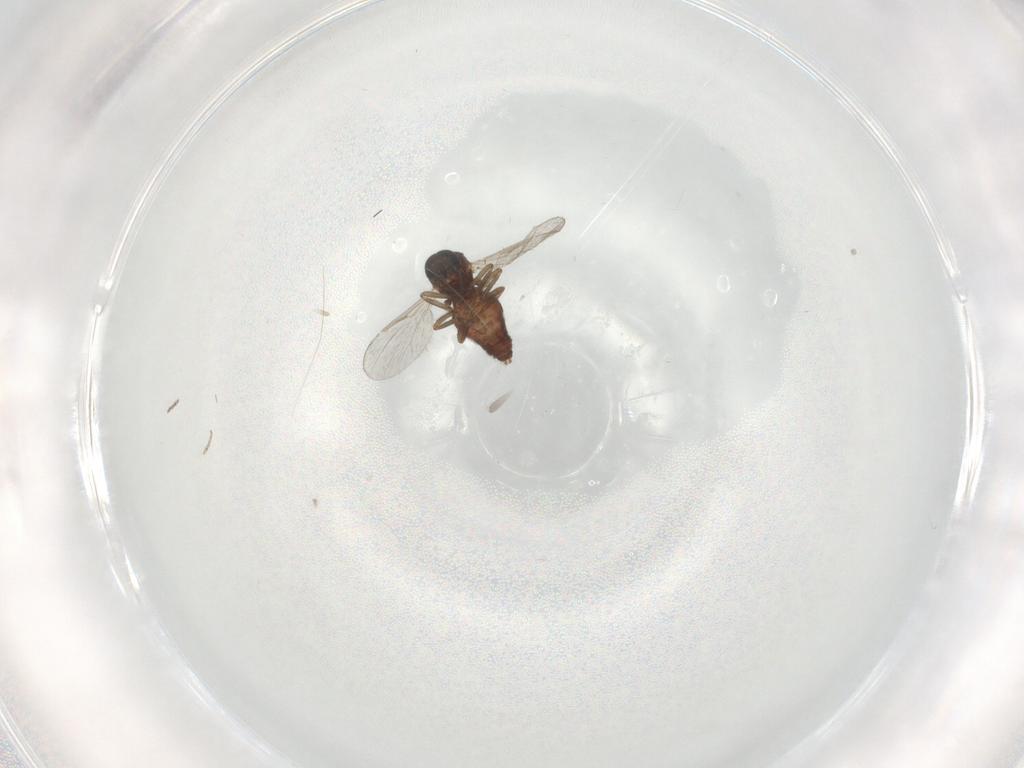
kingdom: Animalia
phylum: Arthropoda
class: Insecta
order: Diptera
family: Ceratopogonidae
